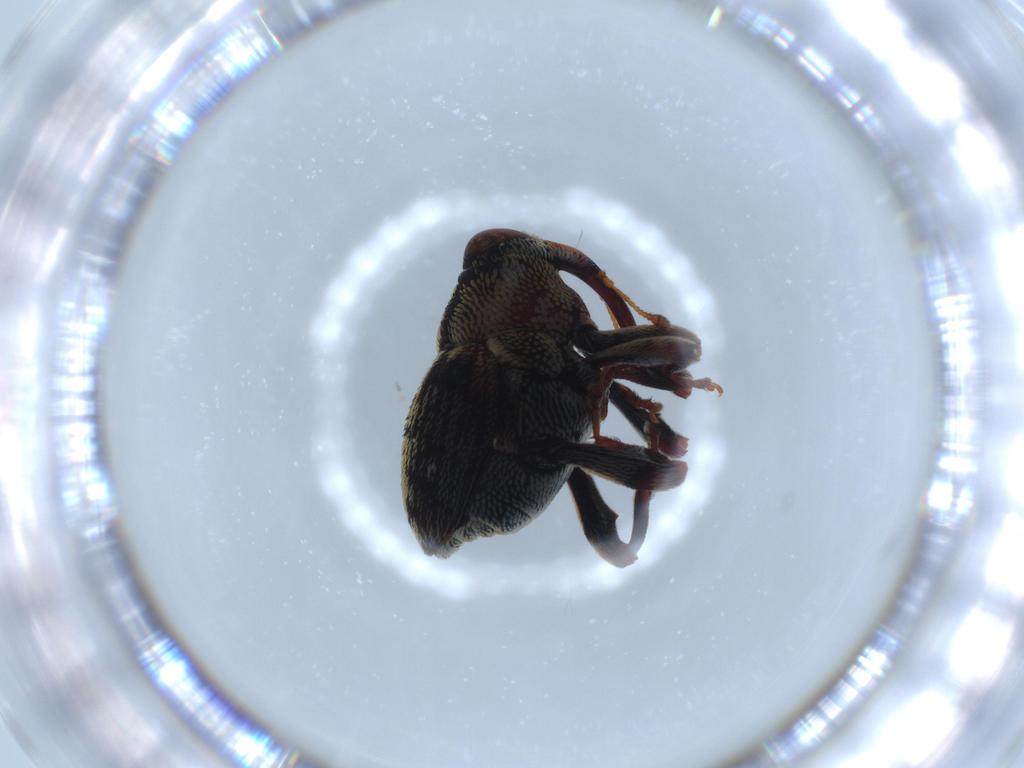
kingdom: Animalia
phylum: Arthropoda
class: Insecta
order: Coleoptera
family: Curculionidae
